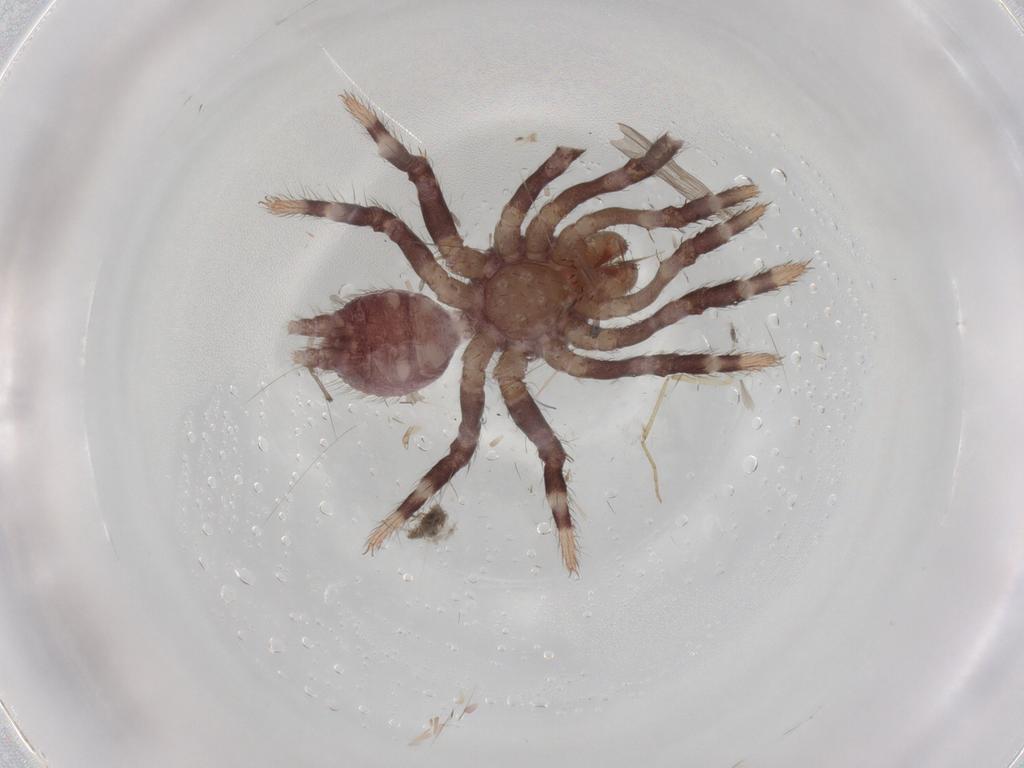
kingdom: Animalia
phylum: Arthropoda
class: Arachnida
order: Araneae
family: Halonoproctidae
